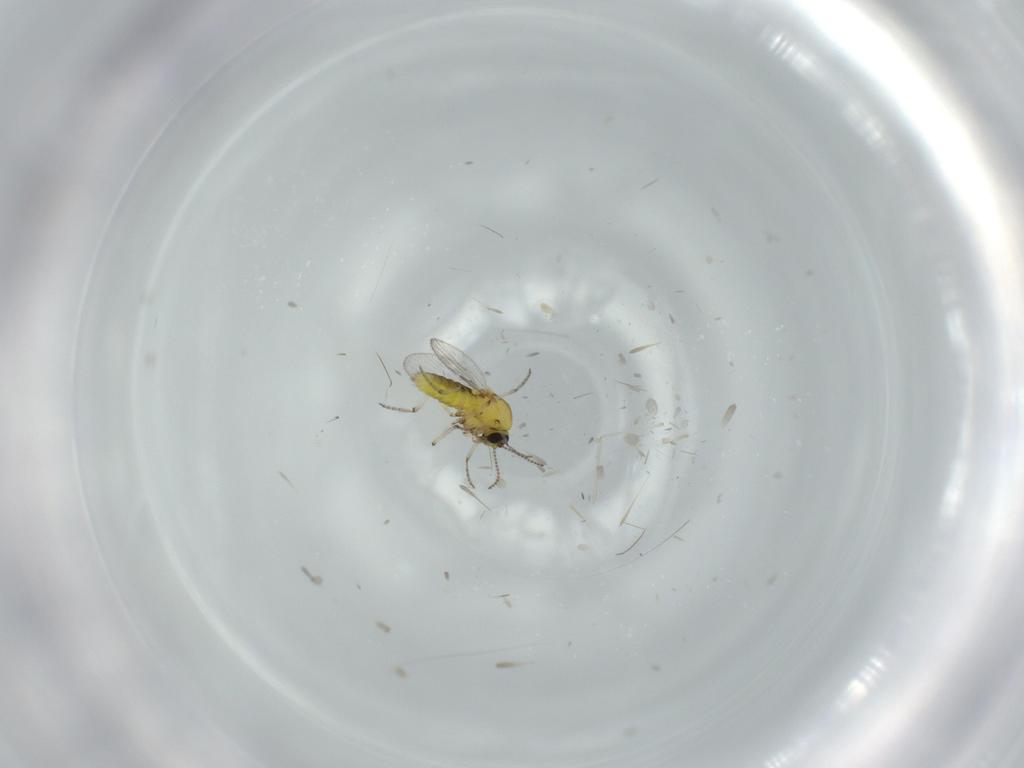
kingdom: Animalia
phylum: Arthropoda
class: Insecta
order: Diptera
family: Ceratopogonidae
